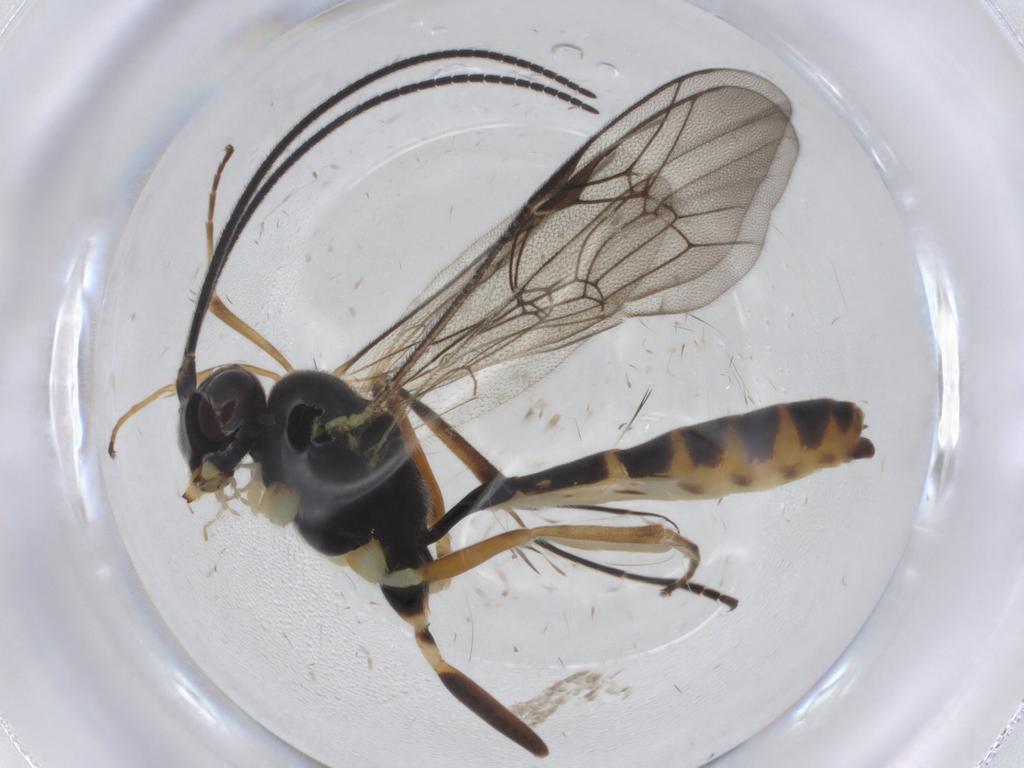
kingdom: Animalia
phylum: Arthropoda
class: Insecta
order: Hymenoptera
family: Ichneumonidae
